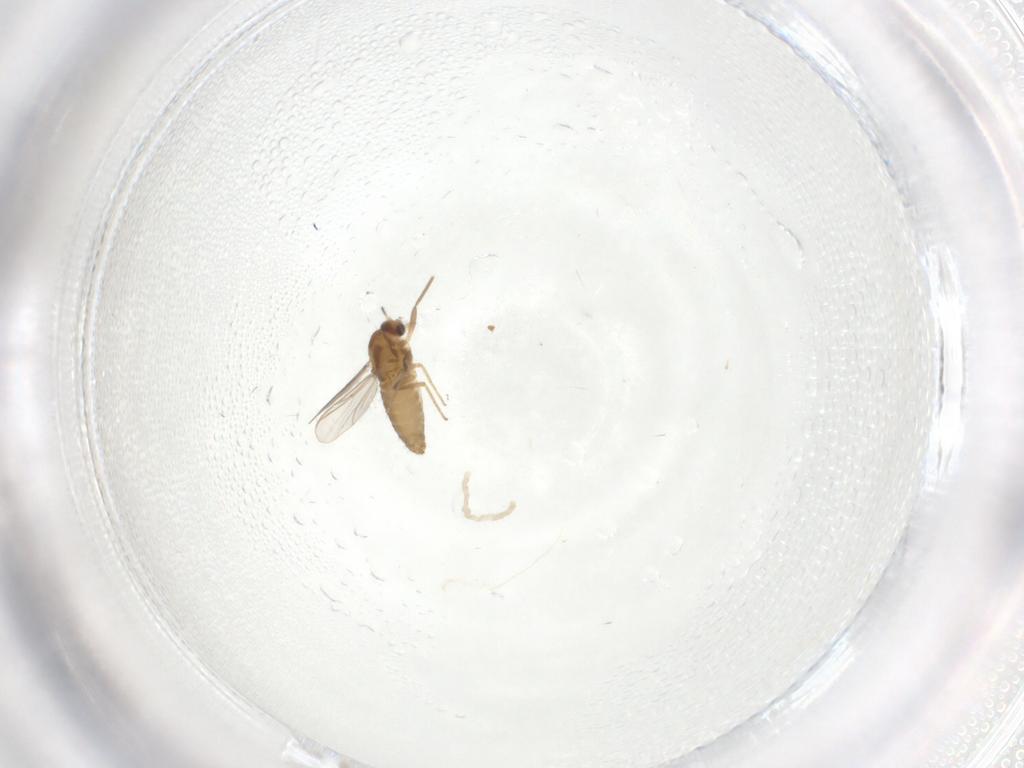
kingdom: Animalia
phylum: Arthropoda
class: Insecta
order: Diptera
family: Chironomidae
